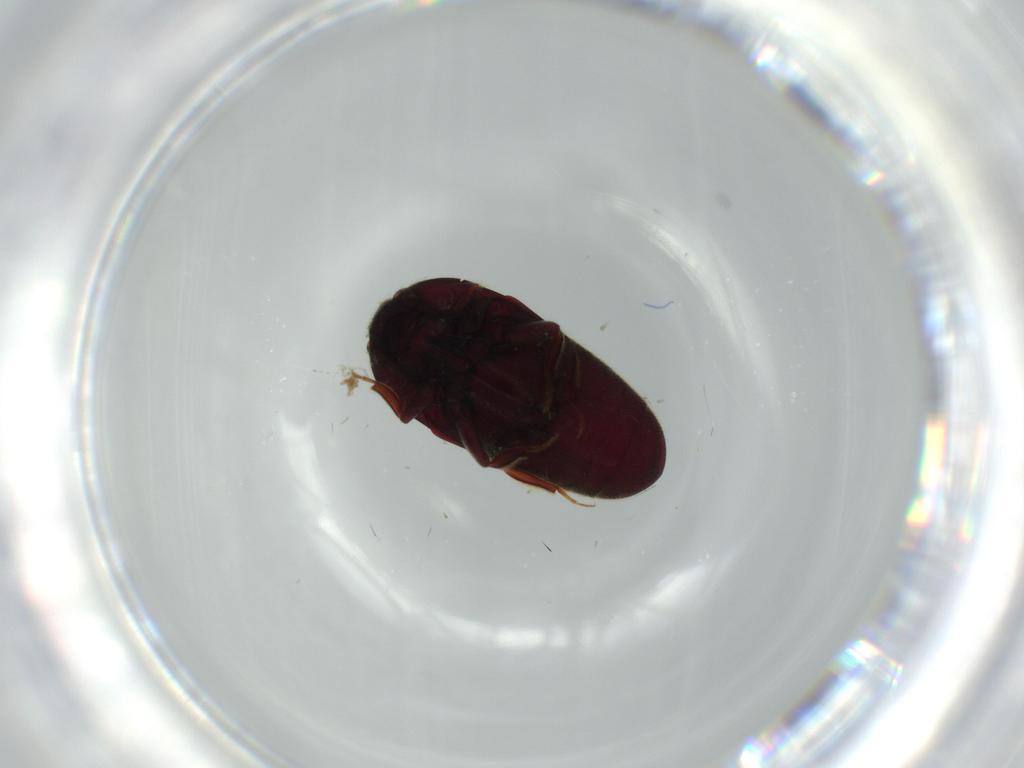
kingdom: Animalia
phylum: Arthropoda
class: Insecta
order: Coleoptera
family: Throscidae
